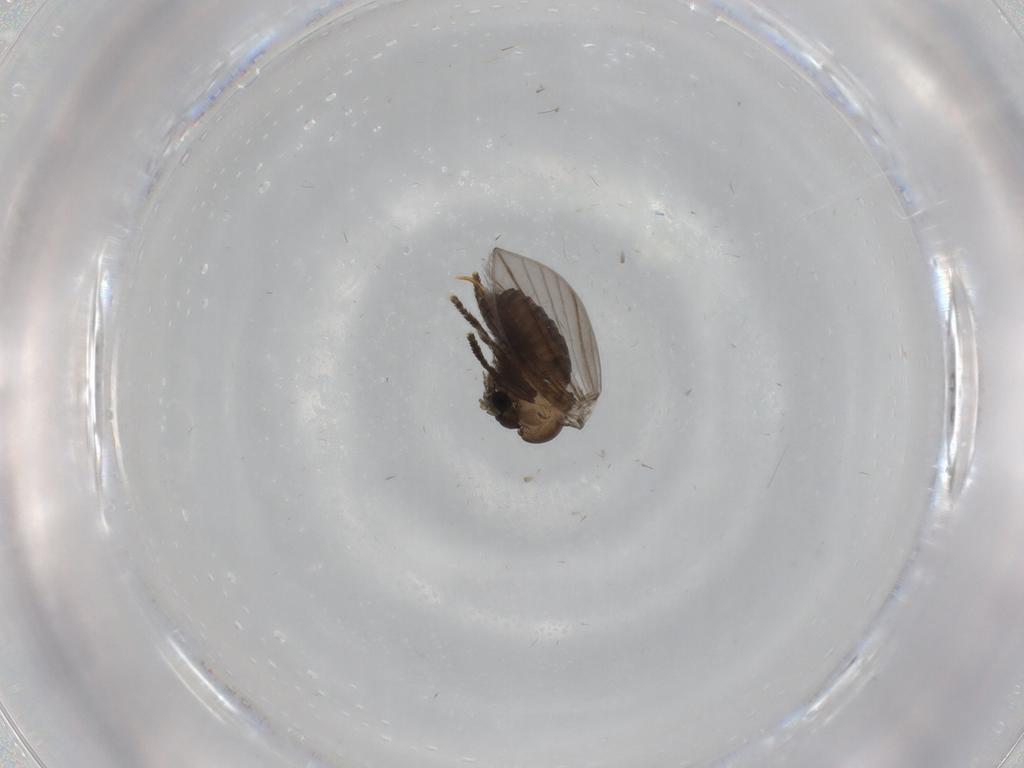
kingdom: Animalia
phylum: Arthropoda
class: Insecta
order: Diptera
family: Psychodidae
